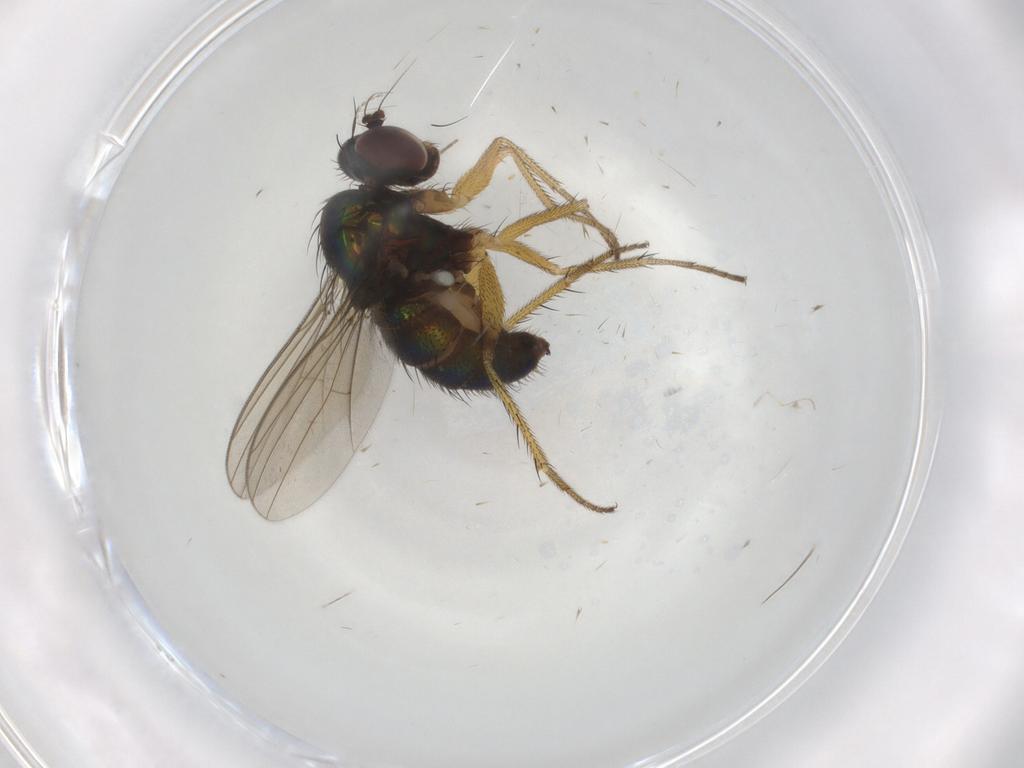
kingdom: Animalia
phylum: Arthropoda
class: Insecta
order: Diptera
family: Dolichopodidae
